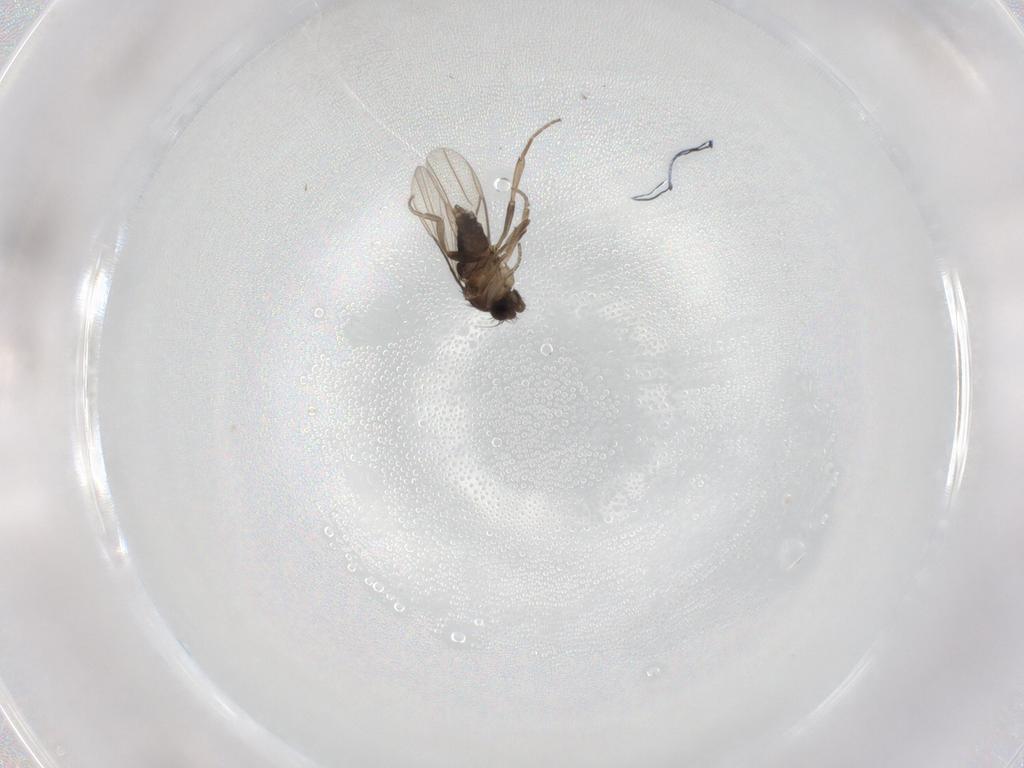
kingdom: Animalia
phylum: Arthropoda
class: Insecta
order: Diptera
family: Phoridae
